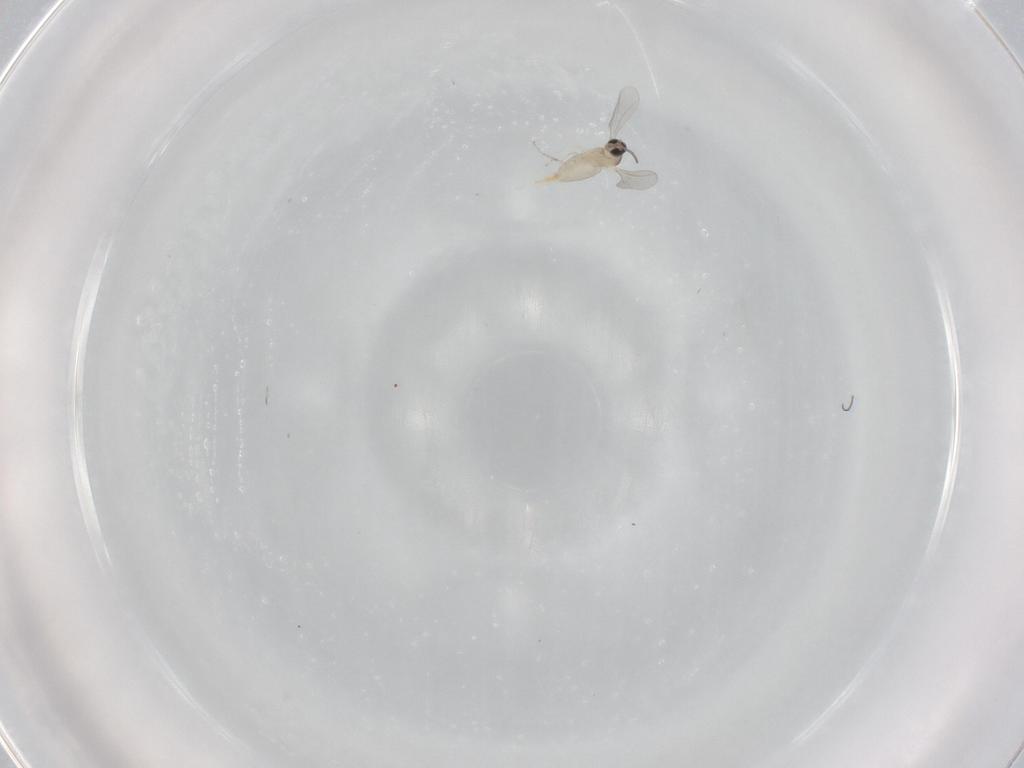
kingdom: Animalia
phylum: Arthropoda
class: Insecta
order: Diptera
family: Cecidomyiidae
